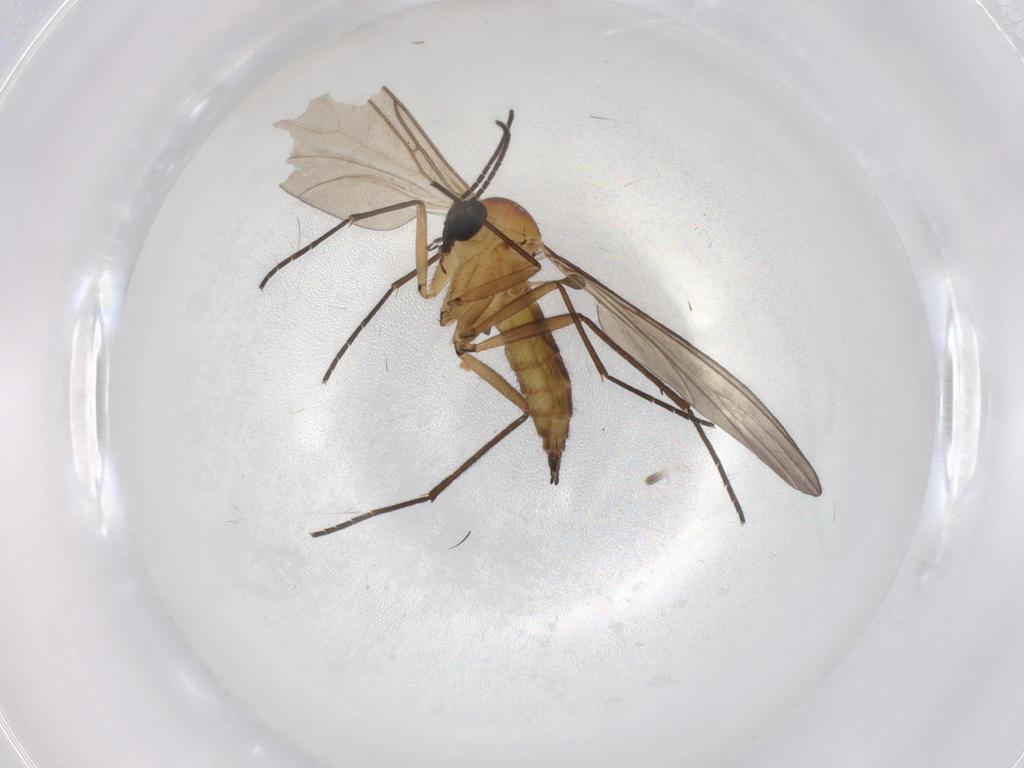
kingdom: Animalia
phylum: Arthropoda
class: Insecta
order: Diptera
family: Sciaridae
